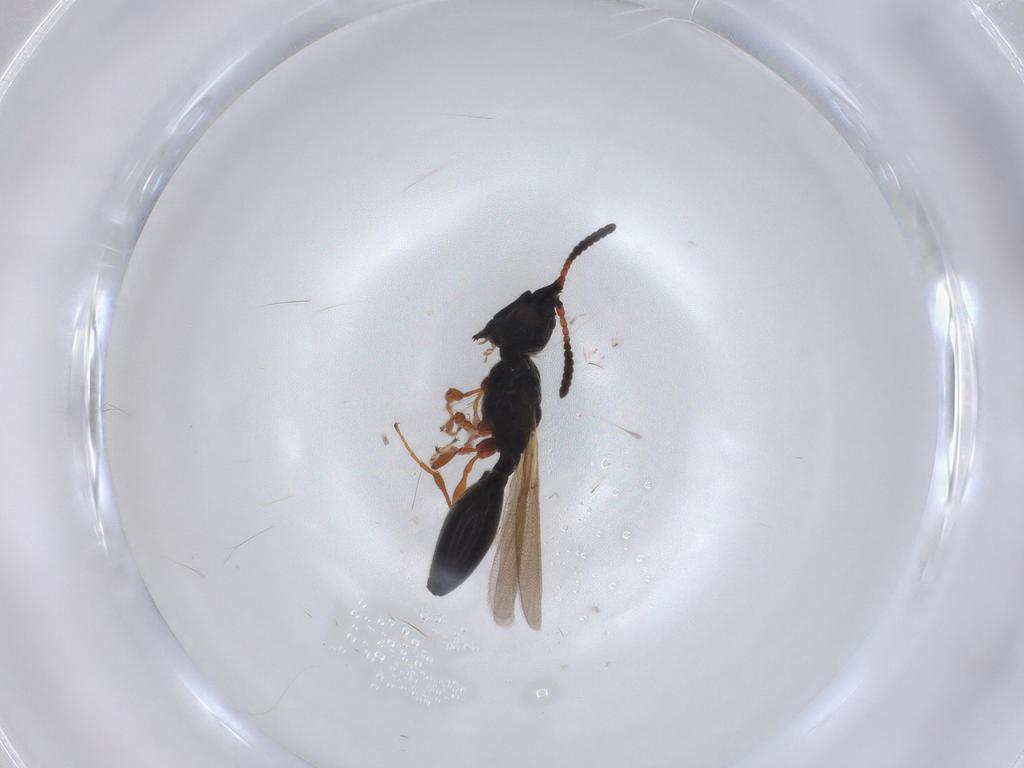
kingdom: Animalia
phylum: Arthropoda
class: Insecta
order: Hymenoptera
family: Diapriidae
